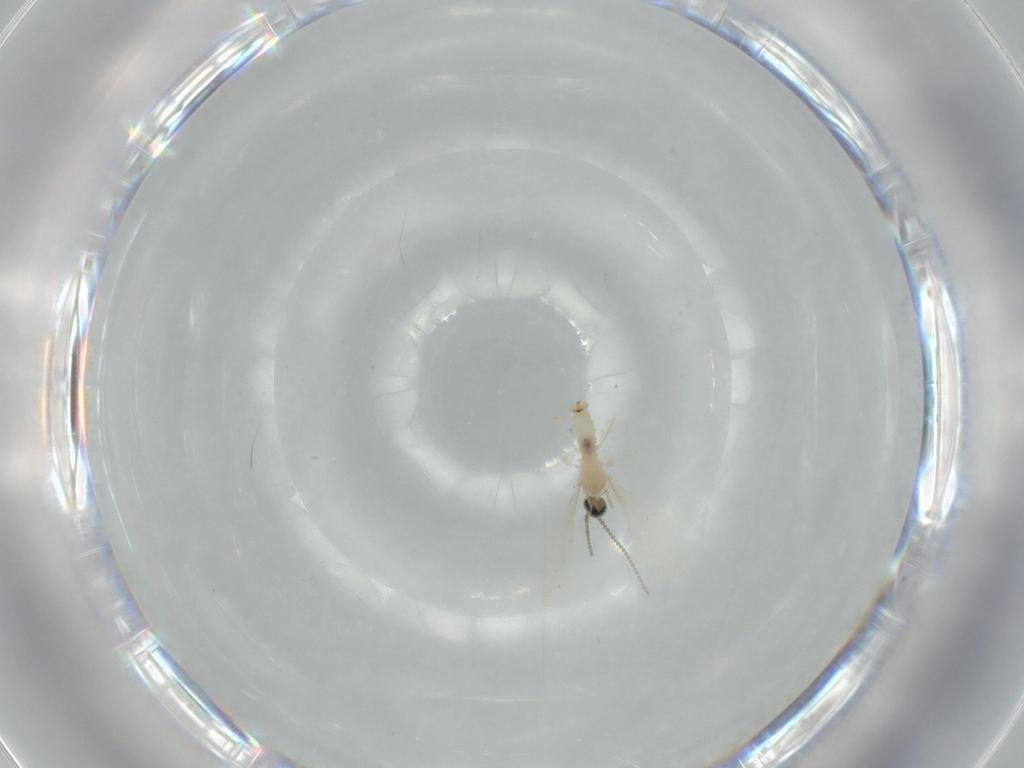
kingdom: Animalia
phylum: Arthropoda
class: Insecta
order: Diptera
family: Cecidomyiidae
